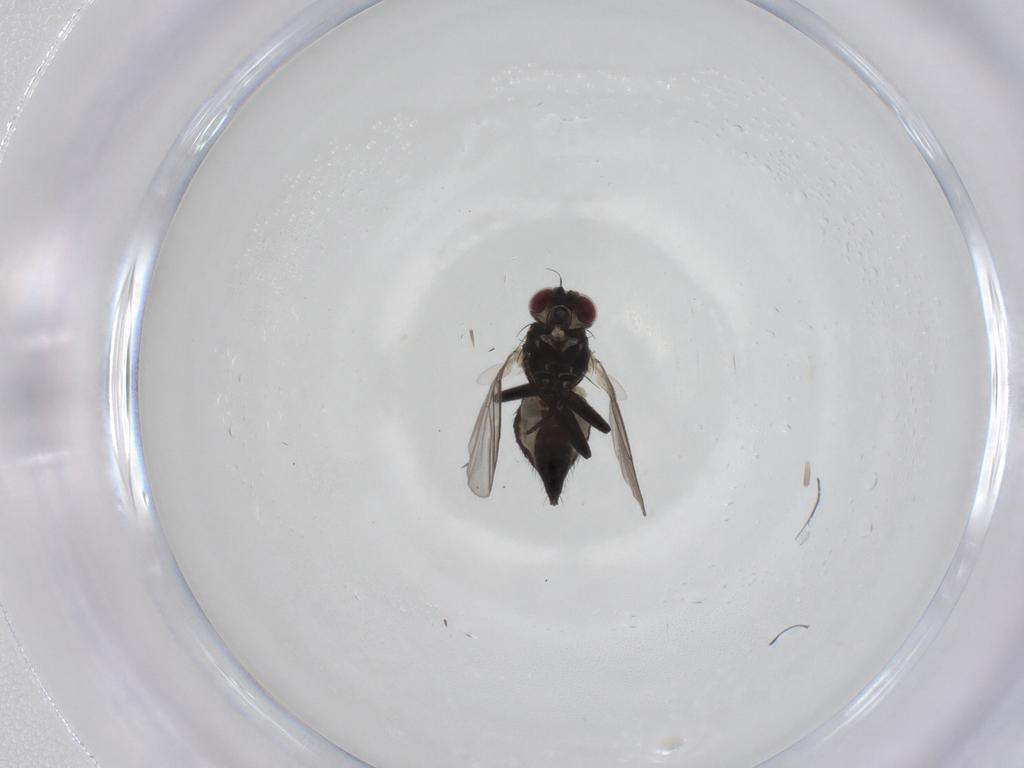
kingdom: Animalia
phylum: Arthropoda
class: Insecta
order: Diptera
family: Agromyzidae
